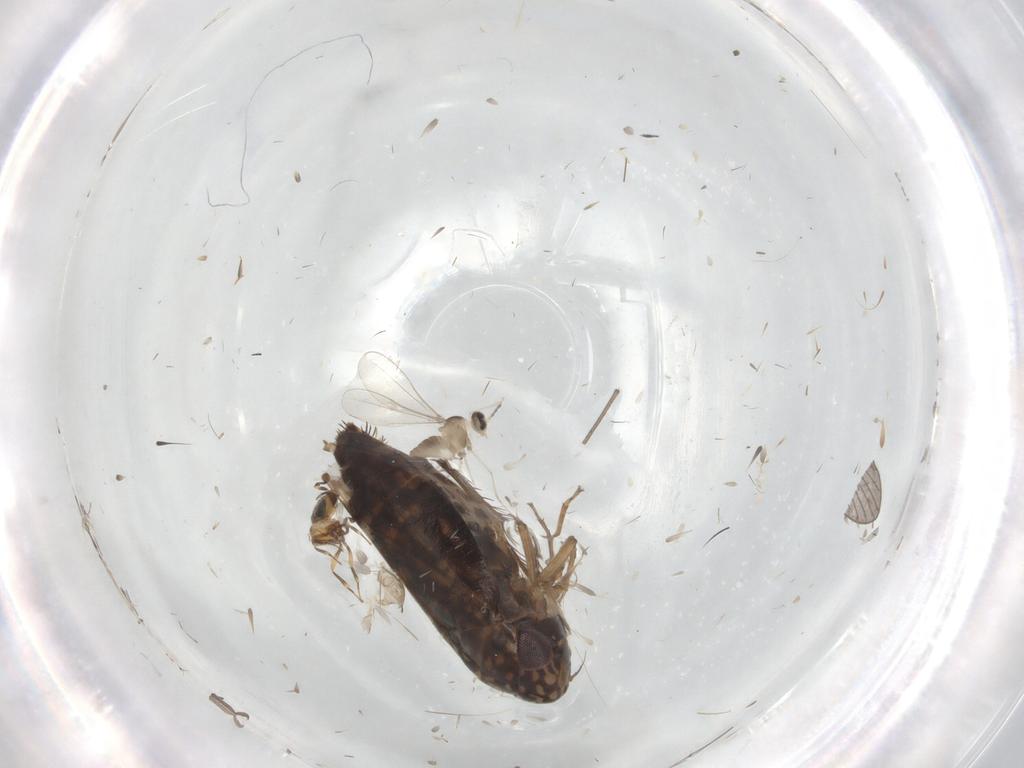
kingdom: Animalia
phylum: Arthropoda
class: Insecta
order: Hemiptera
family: Cicadellidae
